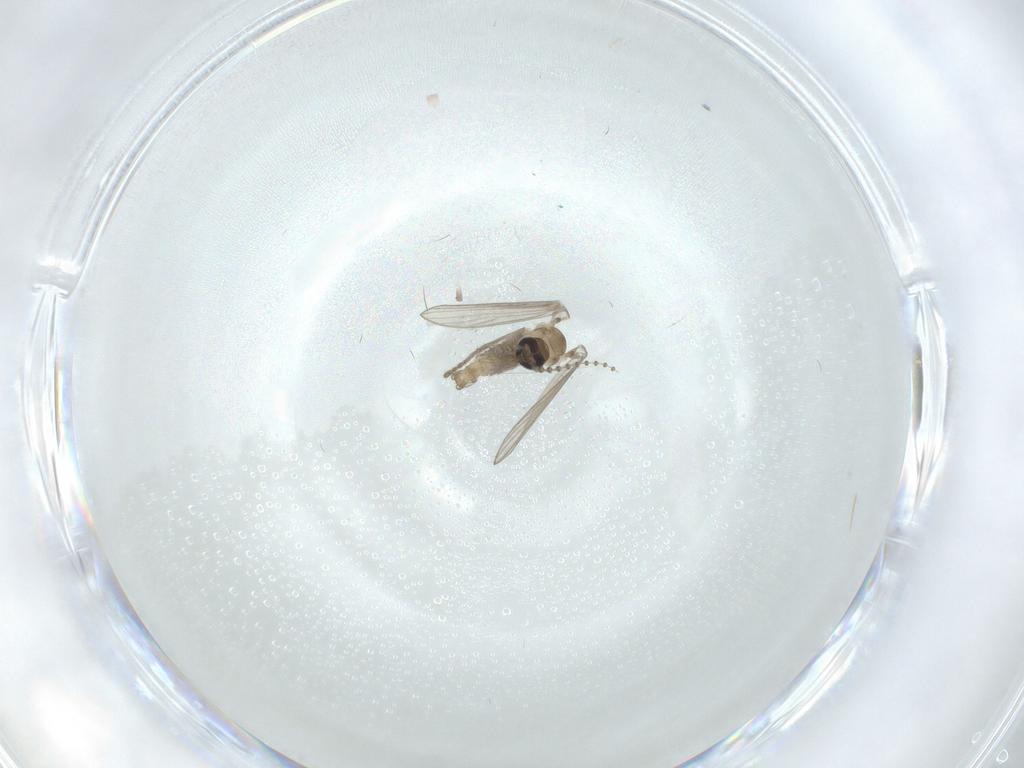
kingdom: Animalia
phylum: Arthropoda
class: Insecta
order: Diptera
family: Psychodidae
